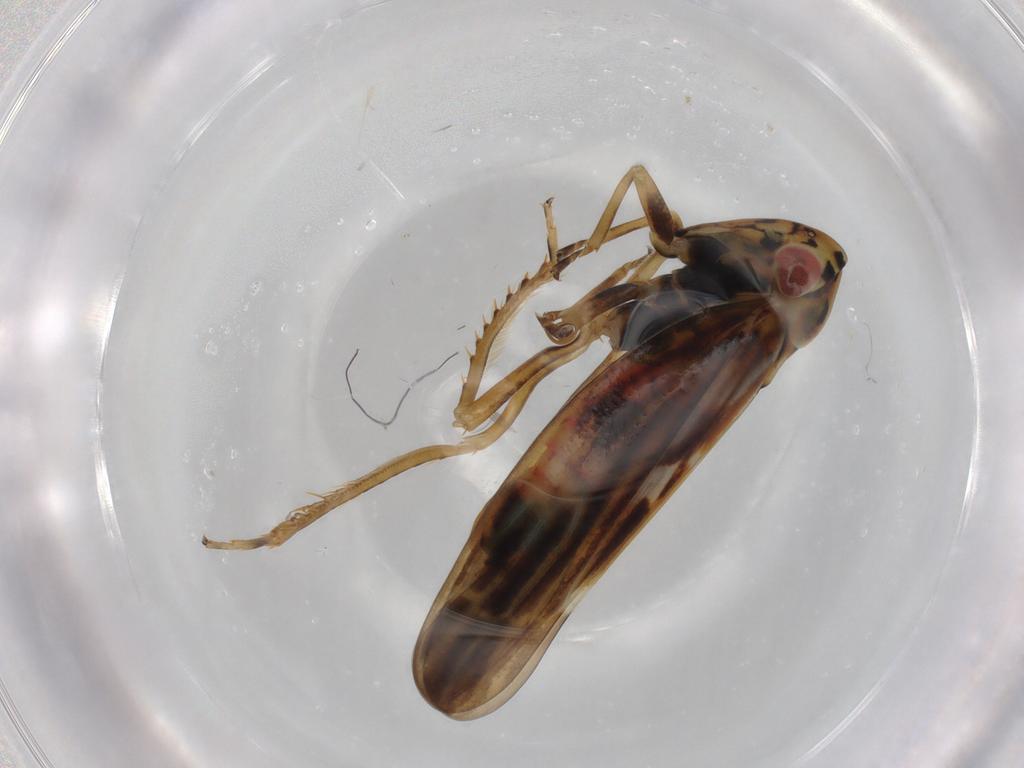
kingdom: Animalia
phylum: Arthropoda
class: Insecta
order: Hemiptera
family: Cicadellidae
